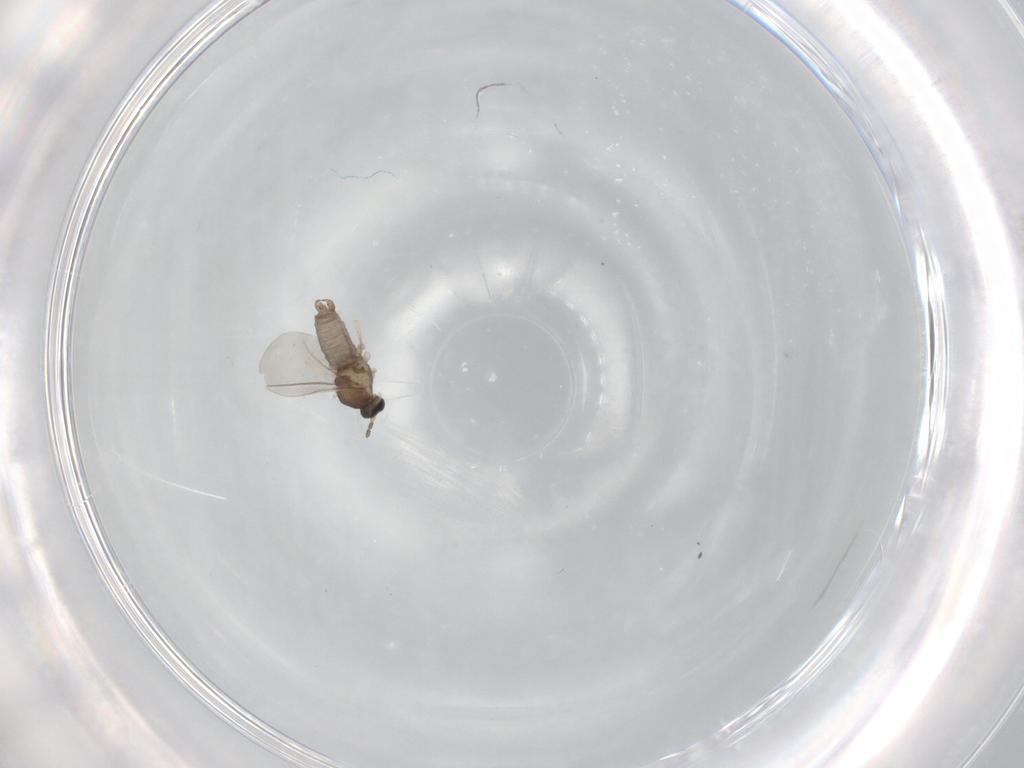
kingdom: Animalia
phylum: Arthropoda
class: Insecta
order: Diptera
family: Cecidomyiidae
